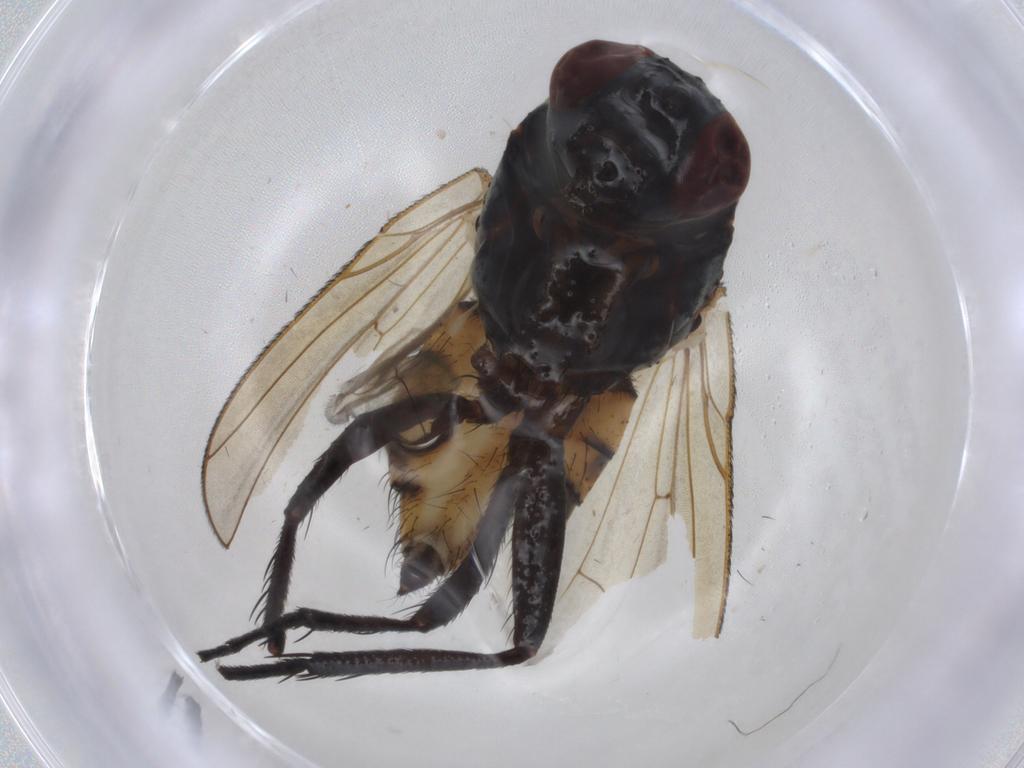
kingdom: Animalia
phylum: Arthropoda
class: Insecta
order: Diptera
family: Anthomyiidae
